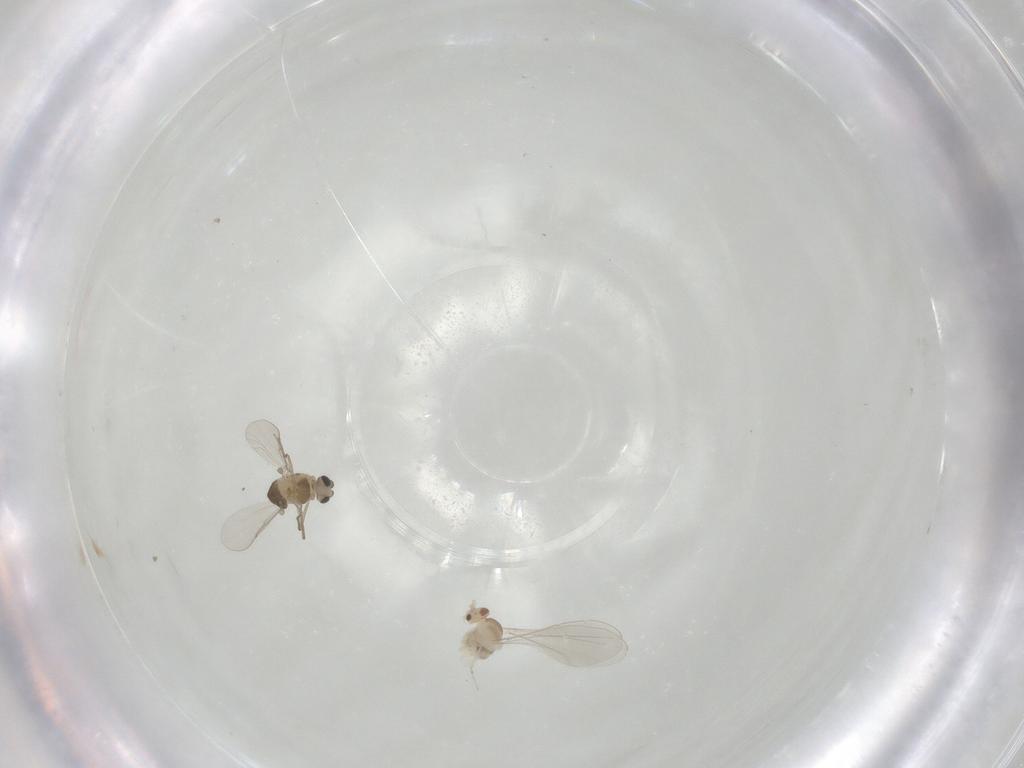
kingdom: Animalia
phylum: Arthropoda
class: Insecta
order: Diptera
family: Cecidomyiidae
